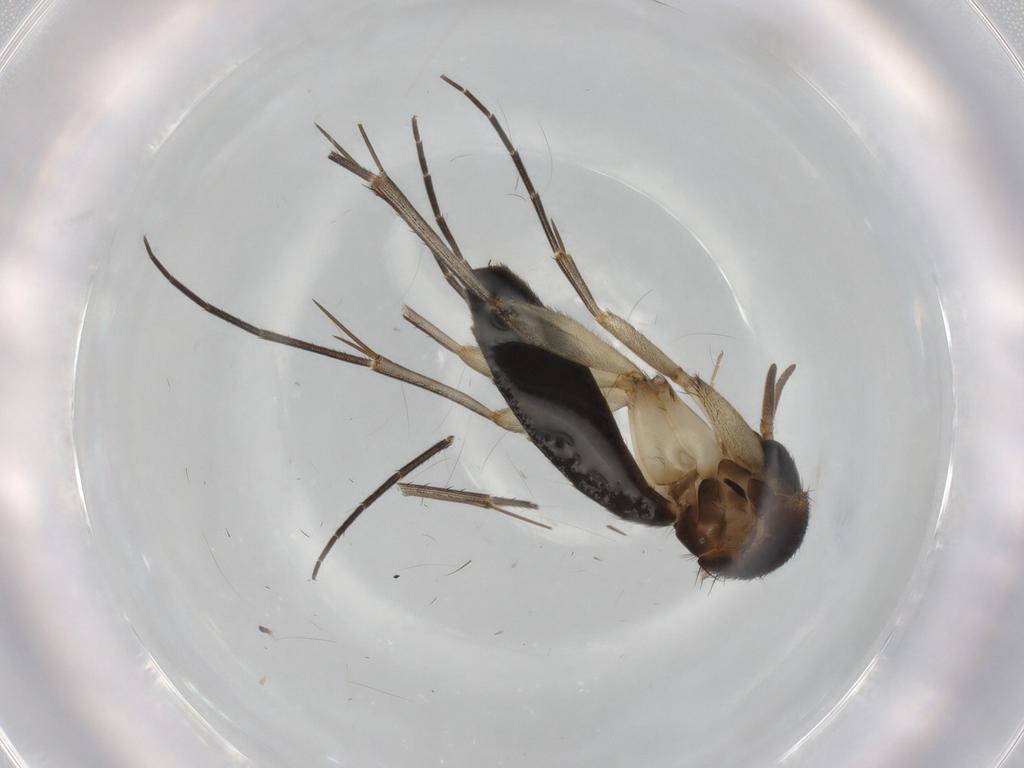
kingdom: Animalia
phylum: Arthropoda
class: Insecta
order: Diptera
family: Mycetophilidae
